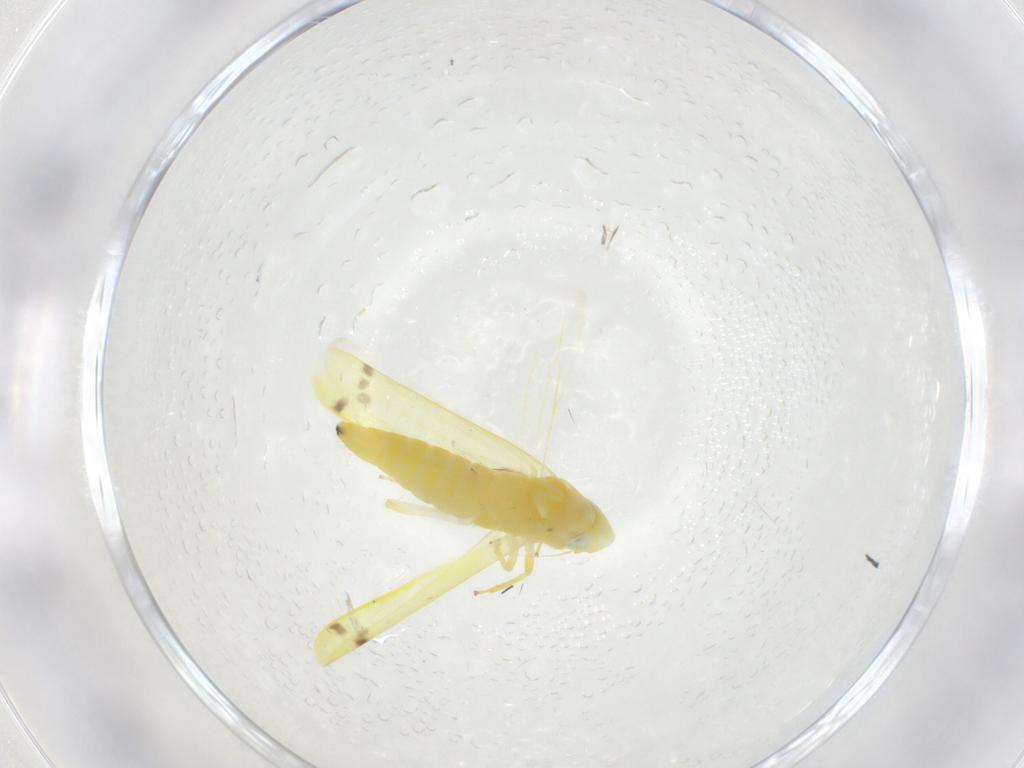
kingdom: Animalia
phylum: Arthropoda
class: Insecta
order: Hemiptera
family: Cicadellidae
